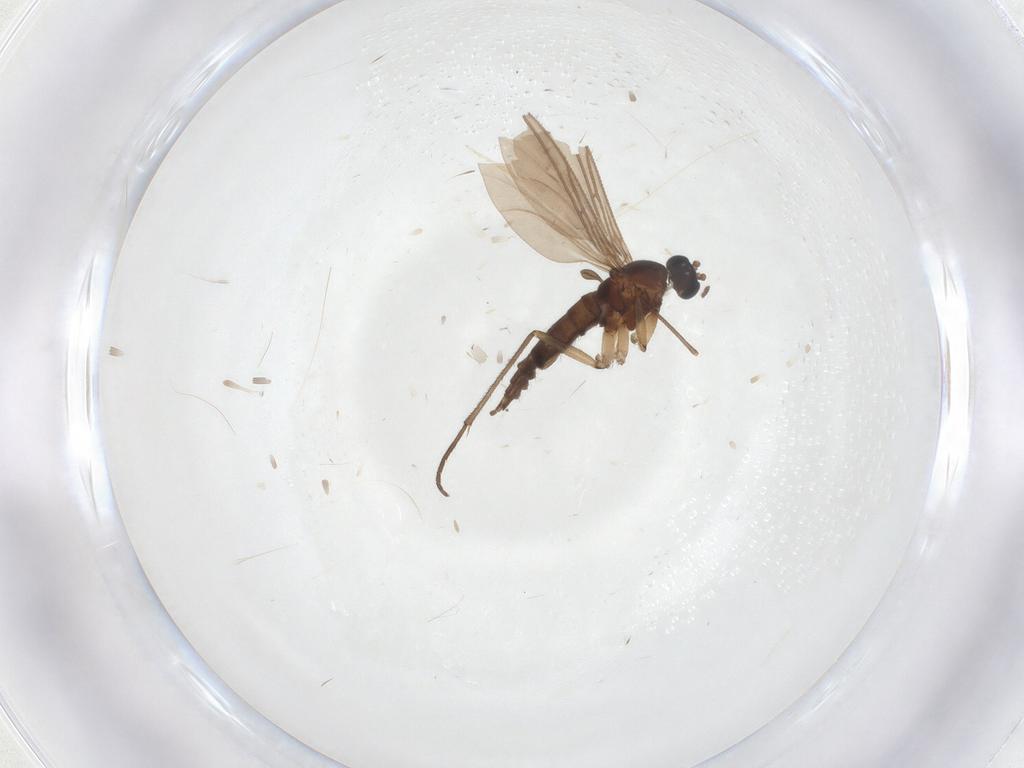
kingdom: Animalia
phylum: Arthropoda
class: Insecta
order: Diptera
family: Sciaridae
